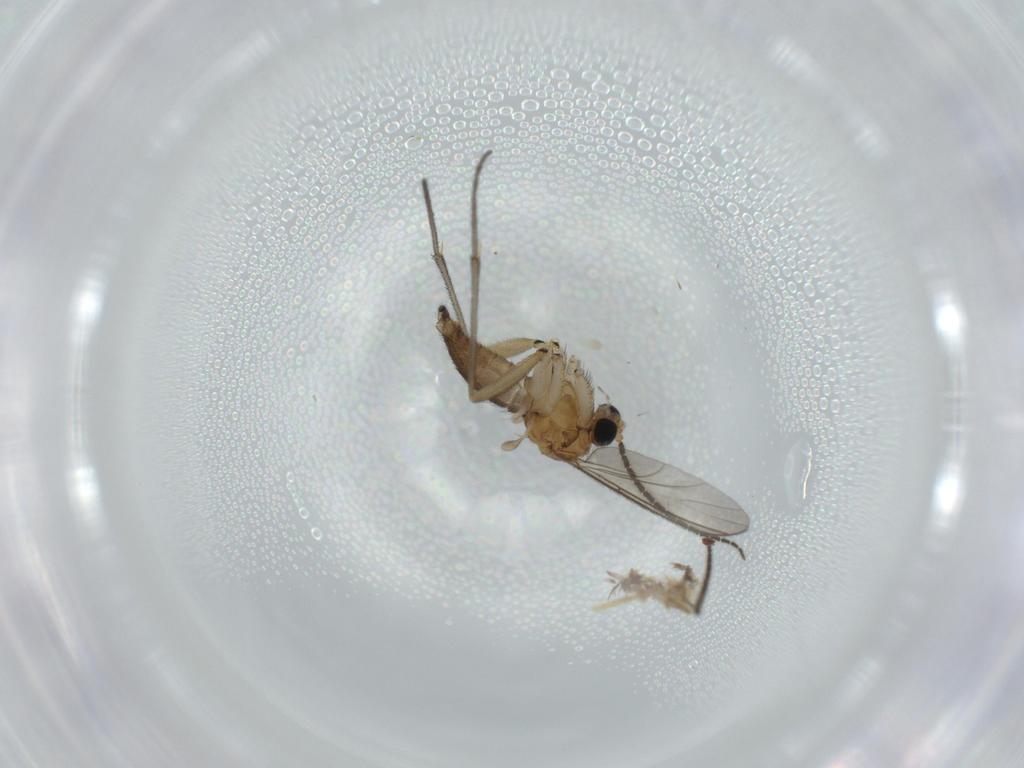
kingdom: Animalia
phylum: Arthropoda
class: Insecta
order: Diptera
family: Sciaridae
